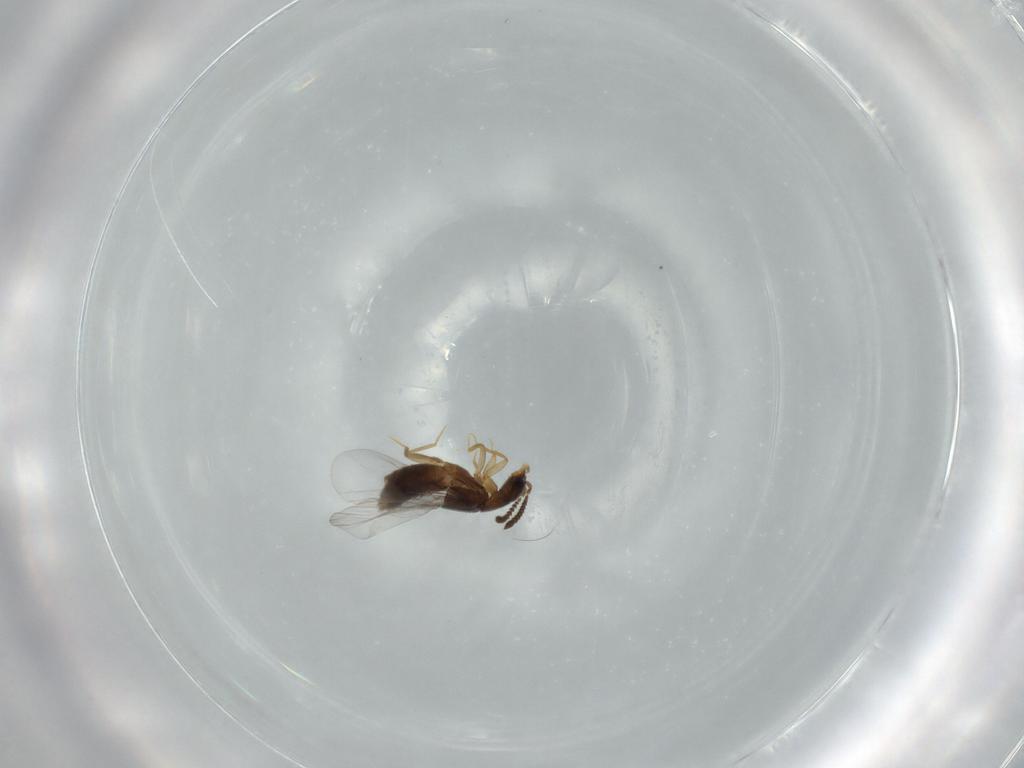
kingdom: Animalia
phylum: Arthropoda
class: Insecta
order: Coleoptera
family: Staphylinidae
